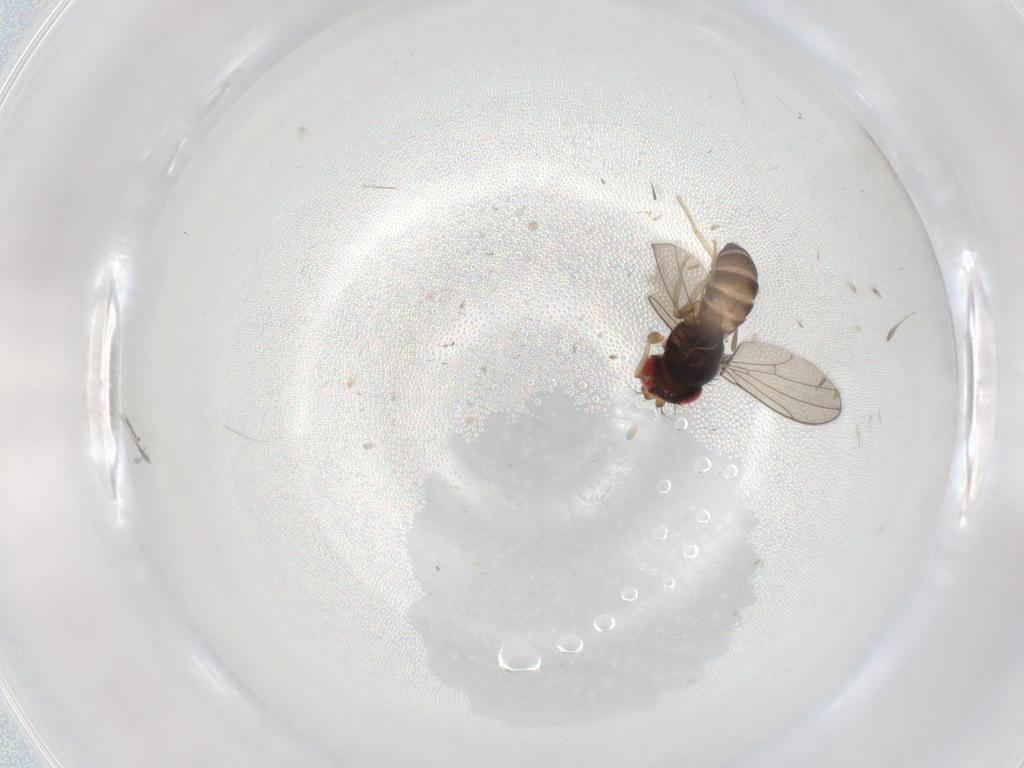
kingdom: Animalia
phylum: Arthropoda
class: Insecta
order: Diptera
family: Drosophilidae
